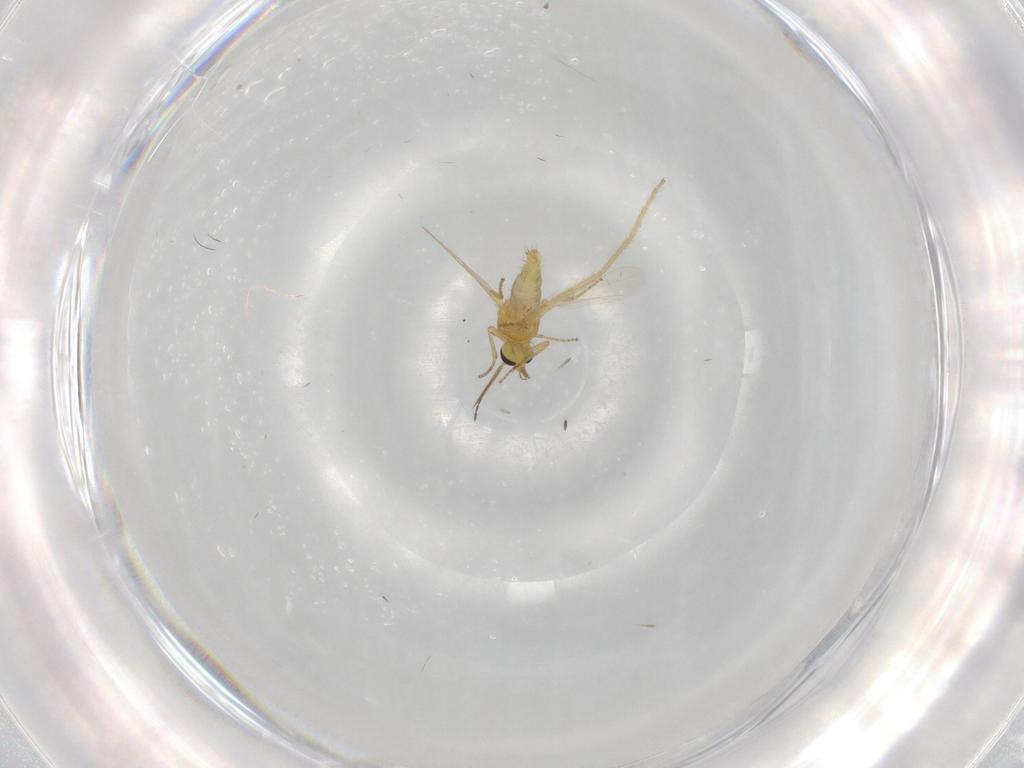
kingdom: Animalia
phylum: Arthropoda
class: Insecta
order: Diptera
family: Ceratopogonidae
